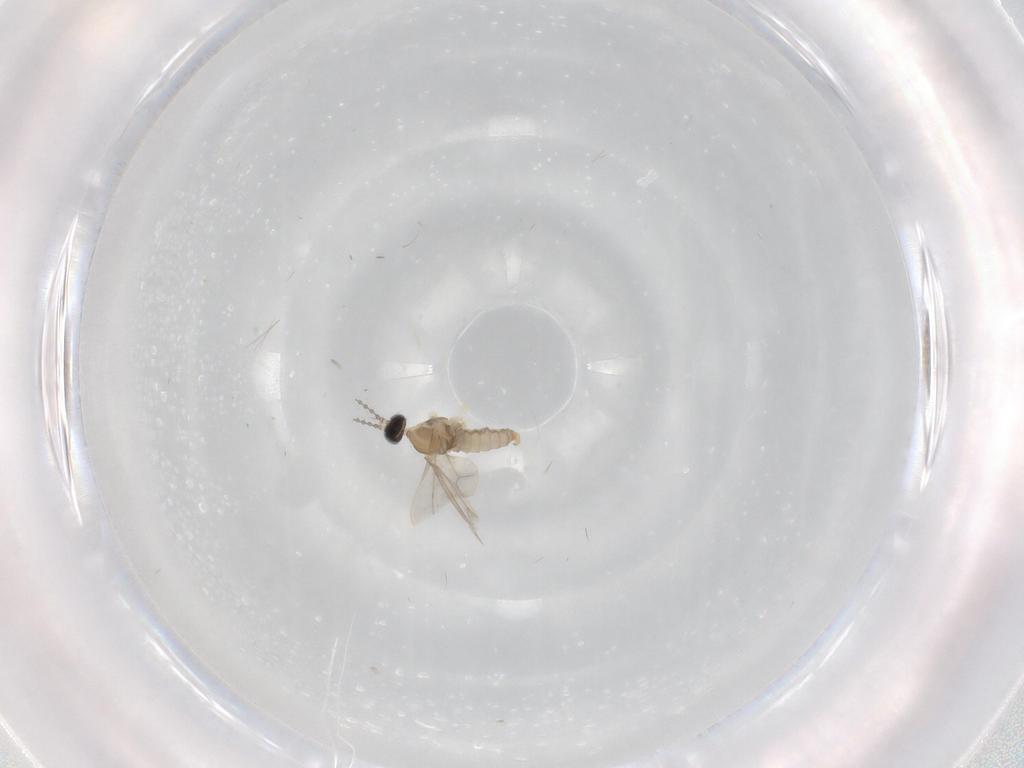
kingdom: Animalia
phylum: Arthropoda
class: Insecta
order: Diptera
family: Phoridae
